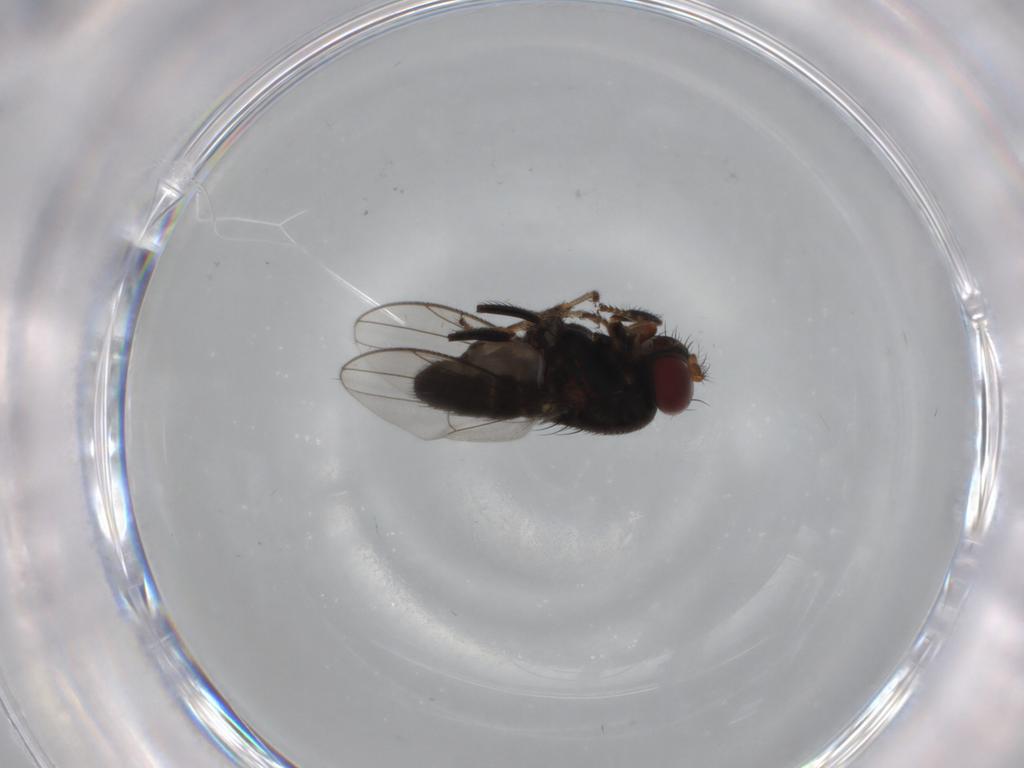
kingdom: Animalia
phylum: Arthropoda
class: Insecta
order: Diptera
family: Ephydridae
